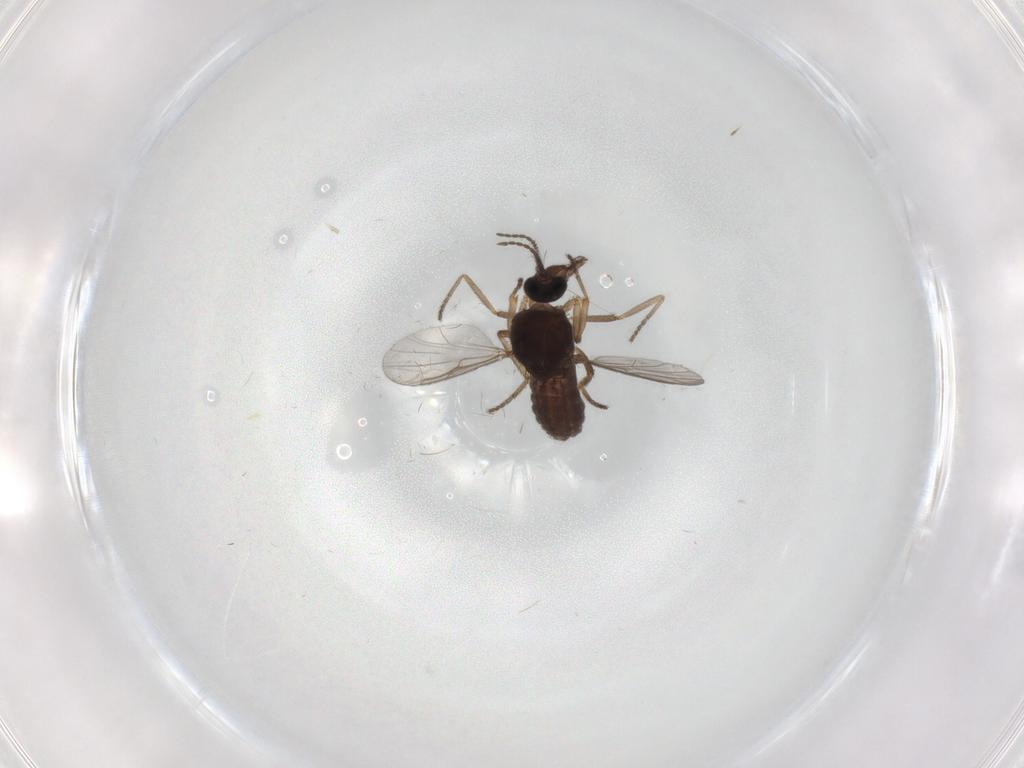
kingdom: Animalia
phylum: Arthropoda
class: Insecta
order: Diptera
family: Ceratopogonidae
